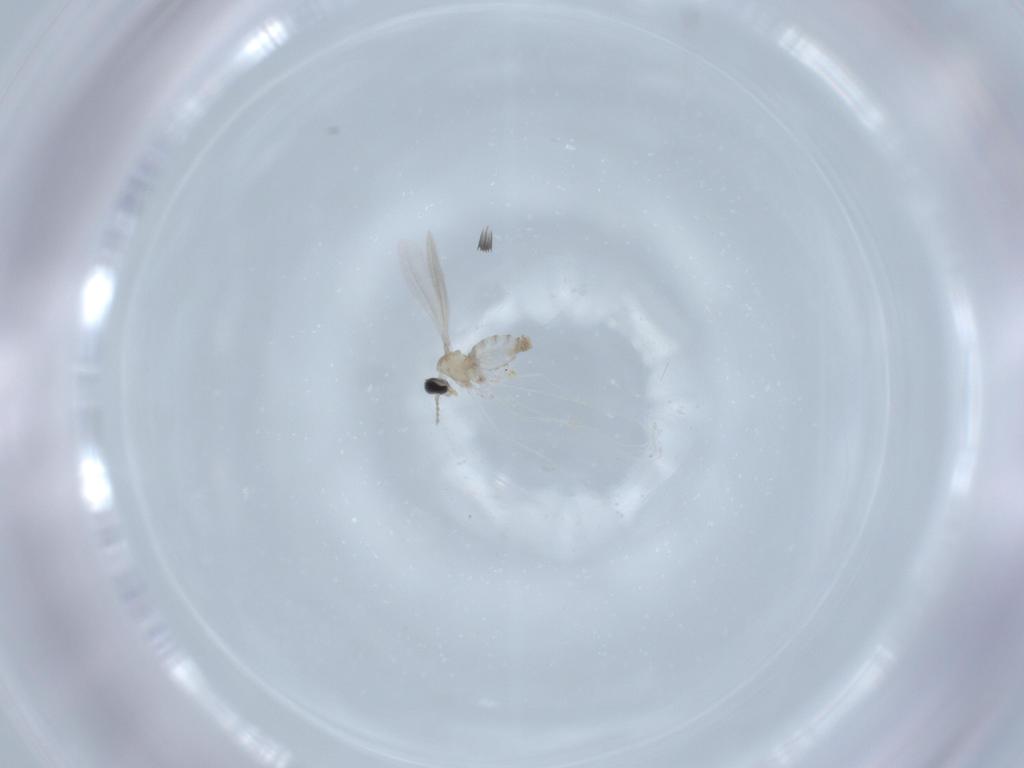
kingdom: Animalia
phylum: Arthropoda
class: Insecta
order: Diptera
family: Cecidomyiidae
